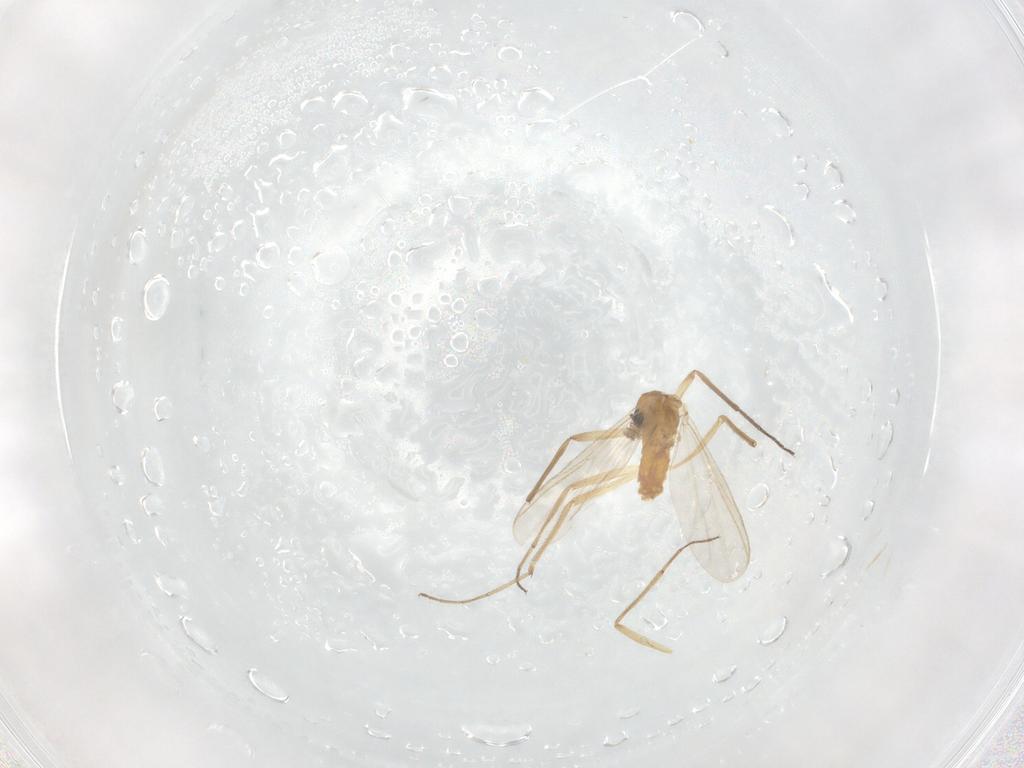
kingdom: Animalia
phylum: Arthropoda
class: Insecta
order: Diptera
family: Chironomidae
